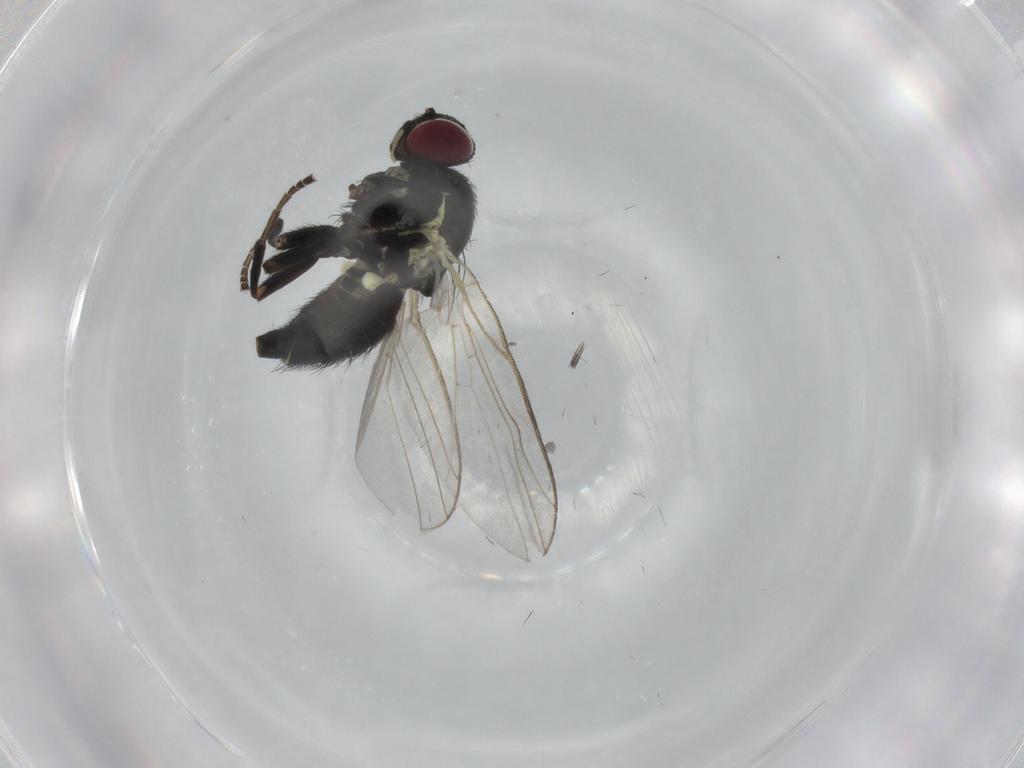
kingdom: Animalia
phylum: Arthropoda
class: Insecta
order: Diptera
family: Agromyzidae
